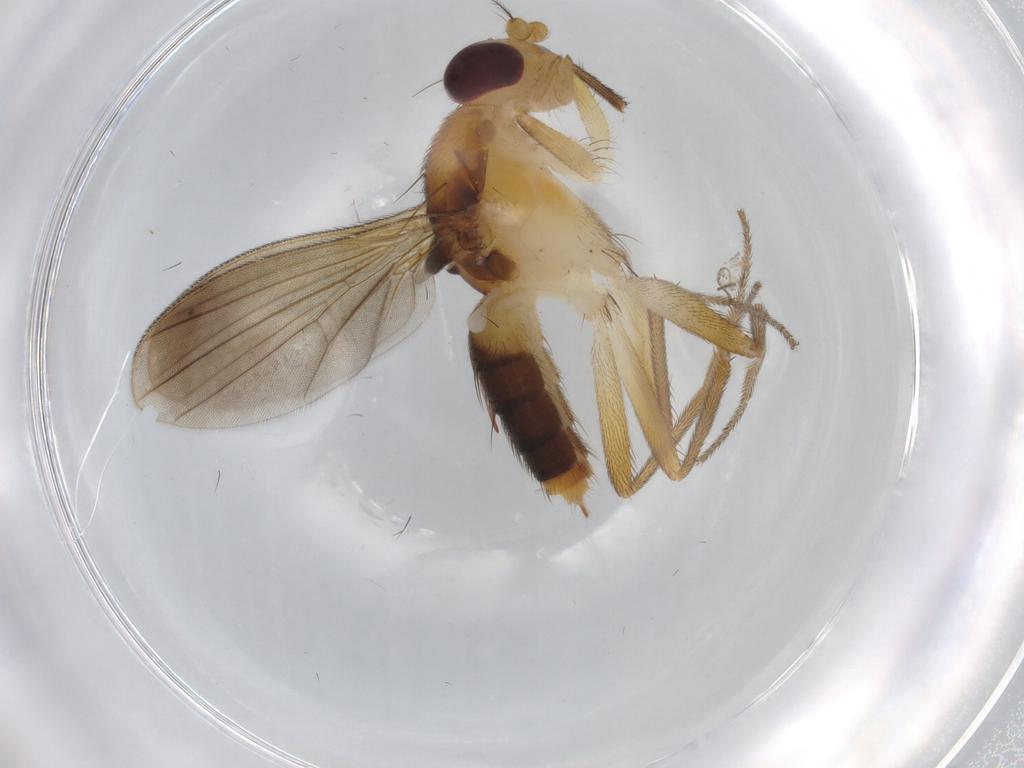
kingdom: Animalia
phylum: Arthropoda
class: Insecta
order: Diptera
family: Clusiidae
